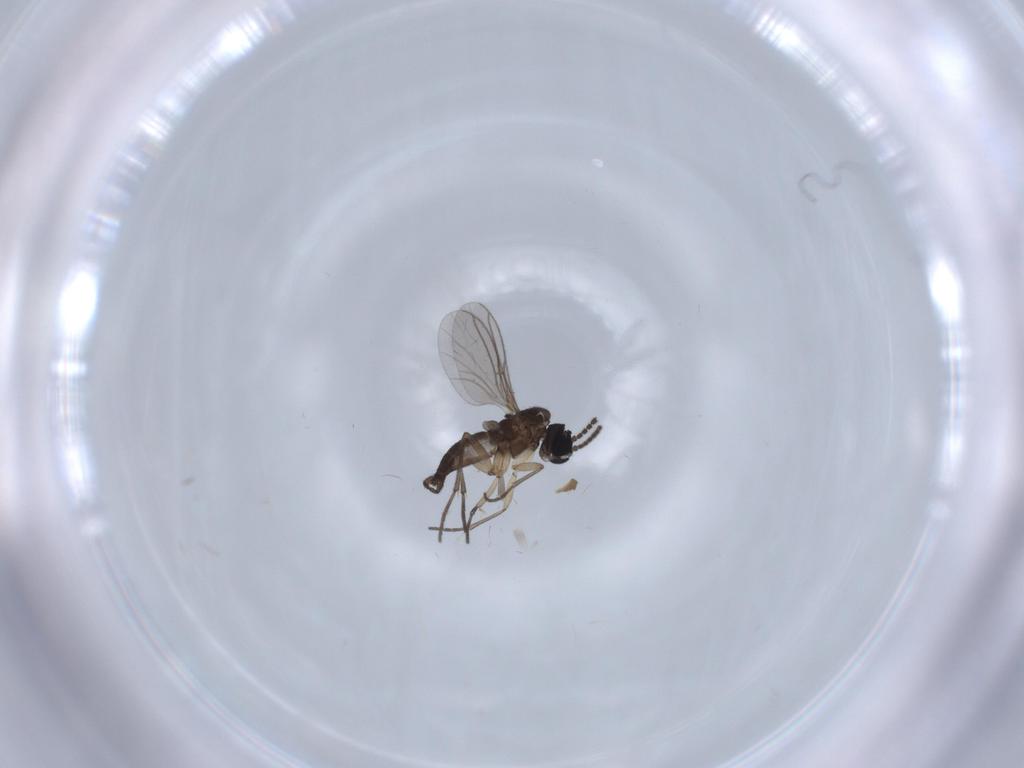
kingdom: Animalia
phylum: Arthropoda
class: Insecta
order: Diptera
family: Sciaridae
